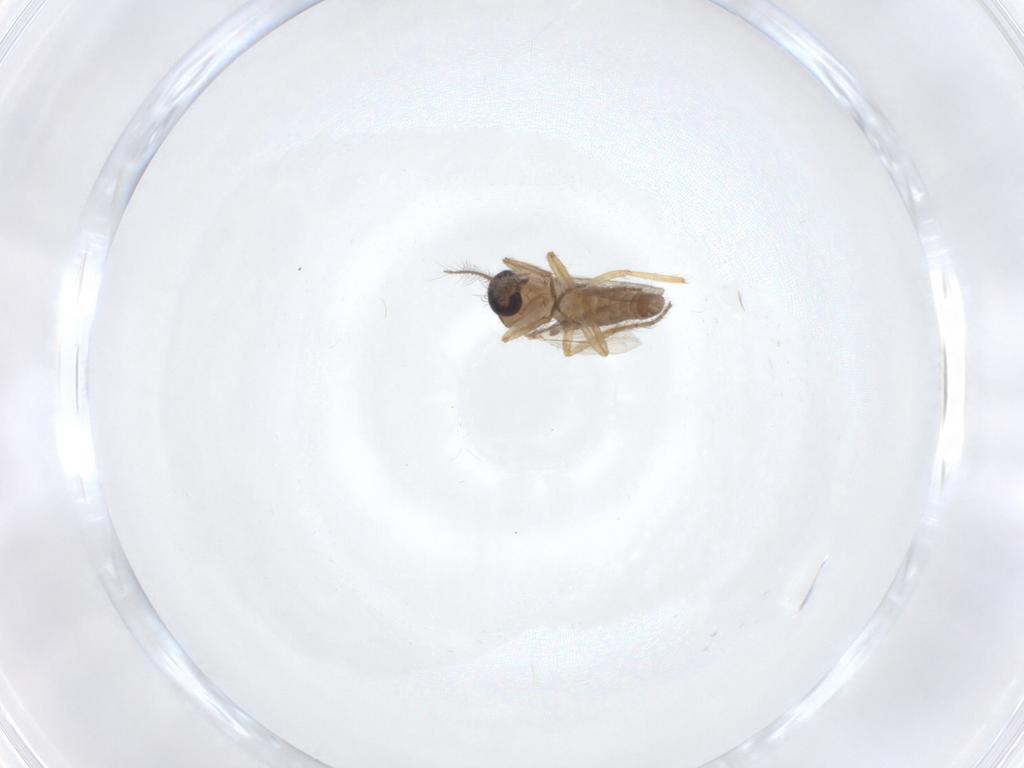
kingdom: Animalia
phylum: Arthropoda
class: Insecta
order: Diptera
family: Ceratopogonidae
